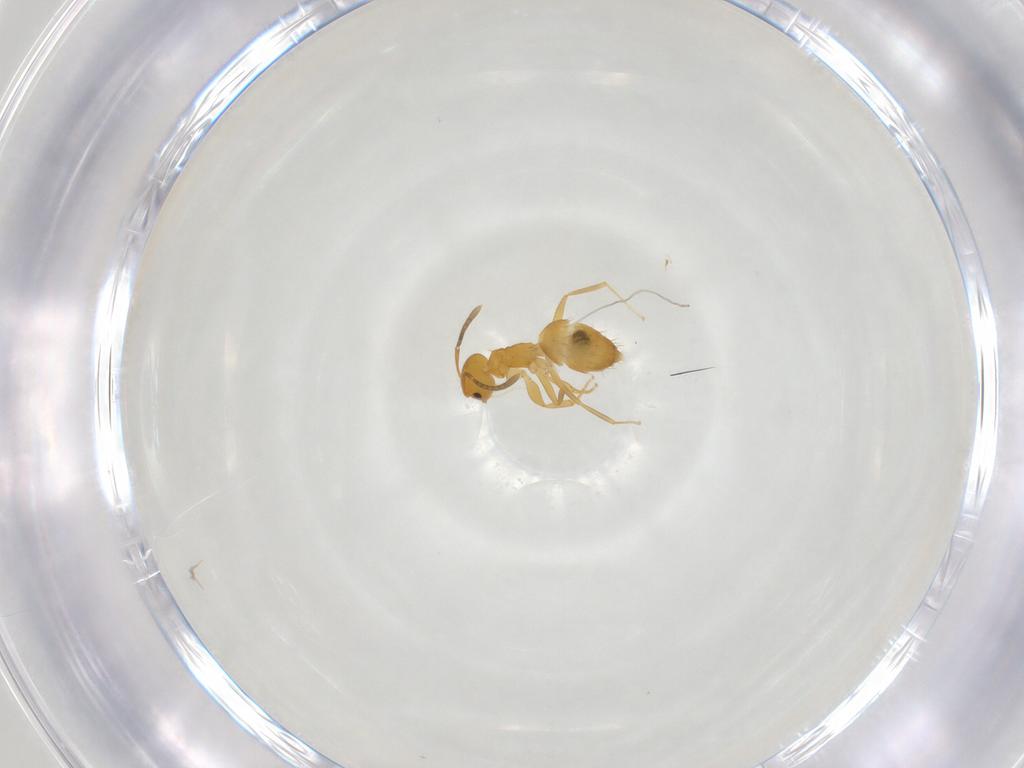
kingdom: Animalia
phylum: Arthropoda
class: Insecta
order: Hymenoptera
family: Formicidae
